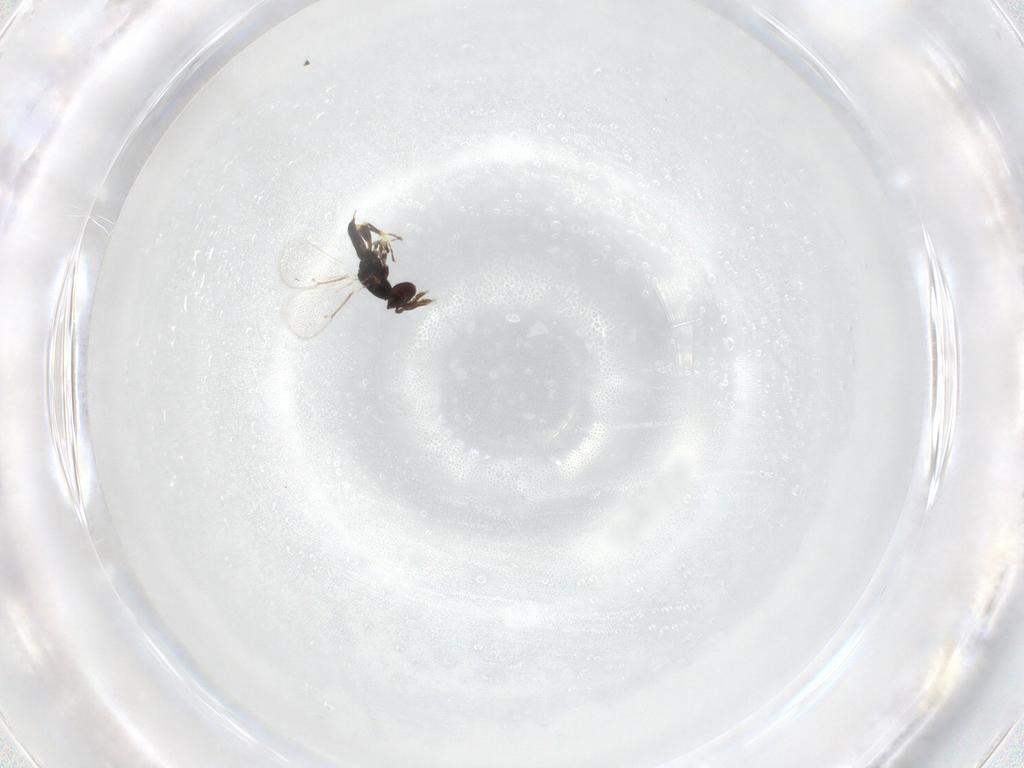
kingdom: Animalia
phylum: Arthropoda
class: Insecta
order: Hymenoptera
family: Eulophidae
